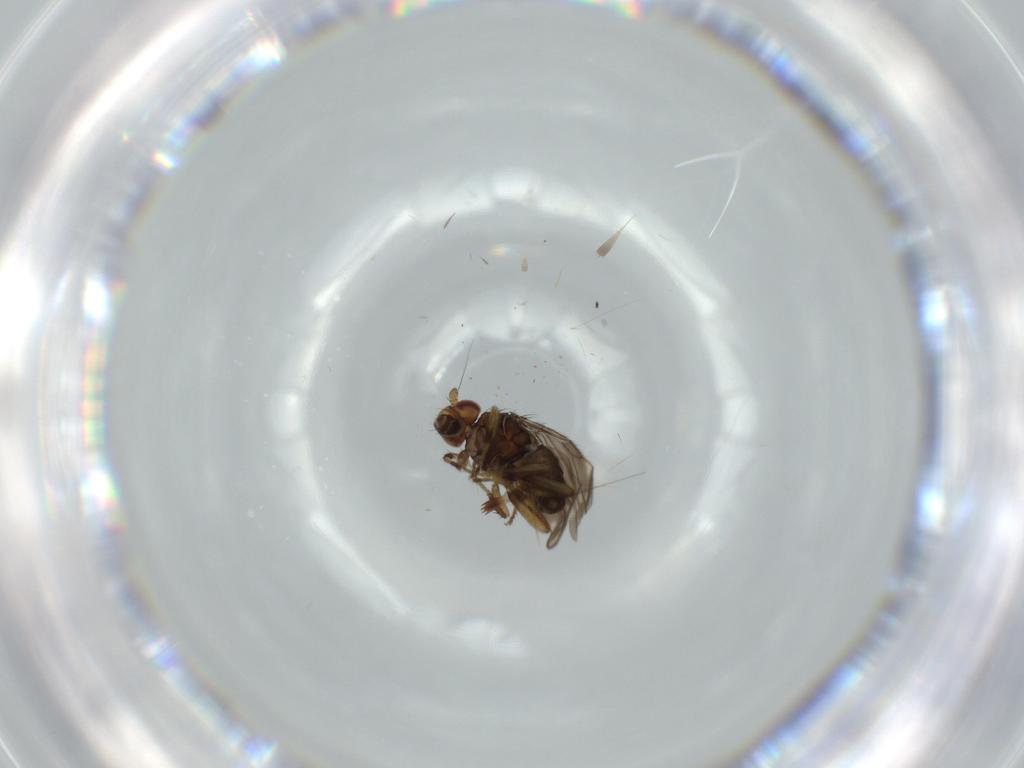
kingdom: Animalia
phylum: Arthropoda
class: Insecta
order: Diptera
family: Sphaeroceridae
